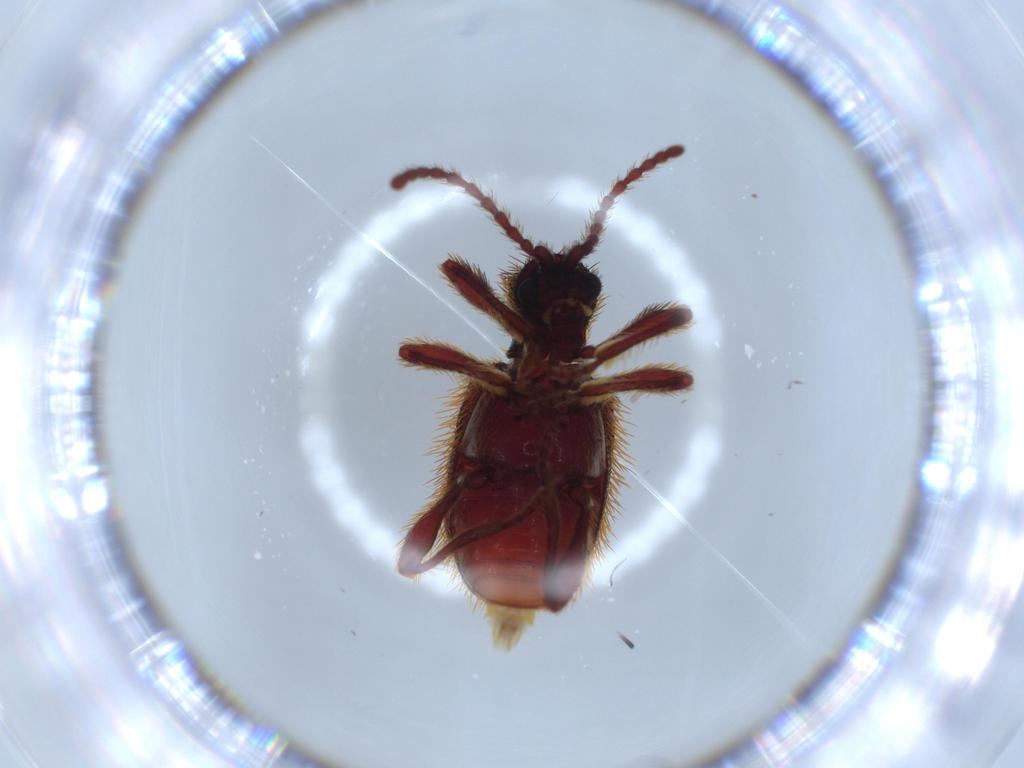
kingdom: Animalia
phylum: Arthropoda
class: Insecta
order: Coleoptera
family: Ptinidae
